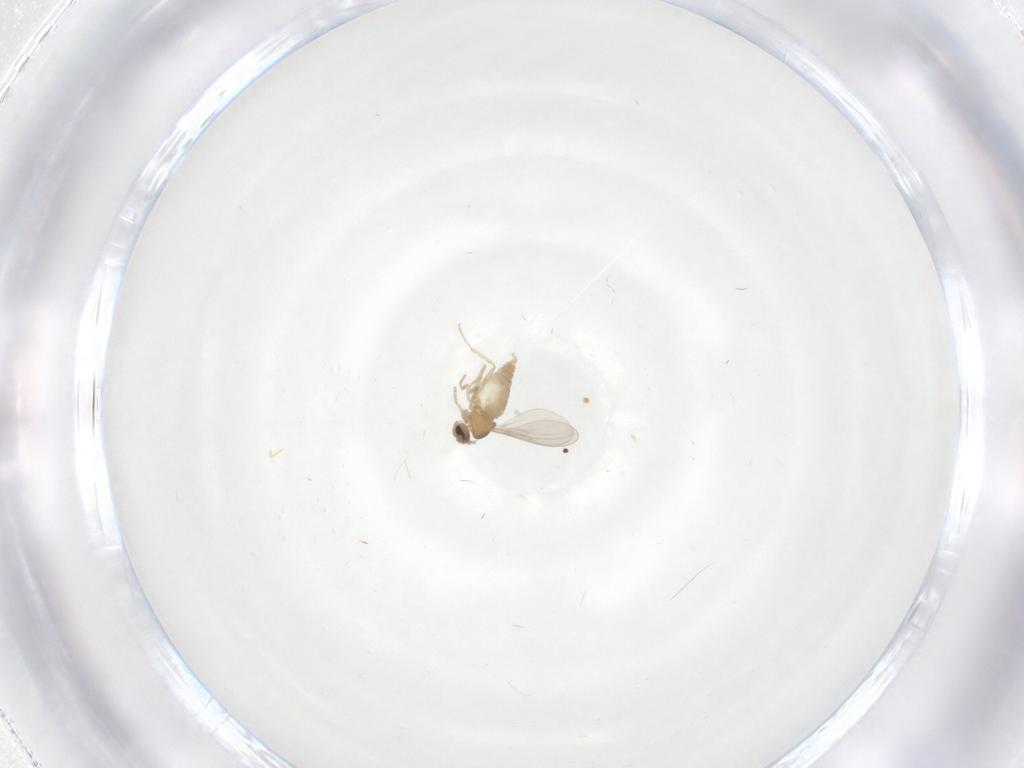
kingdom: Animalia
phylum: Arthropoda
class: Insecta
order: Diptera
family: Cecidomyiidae
